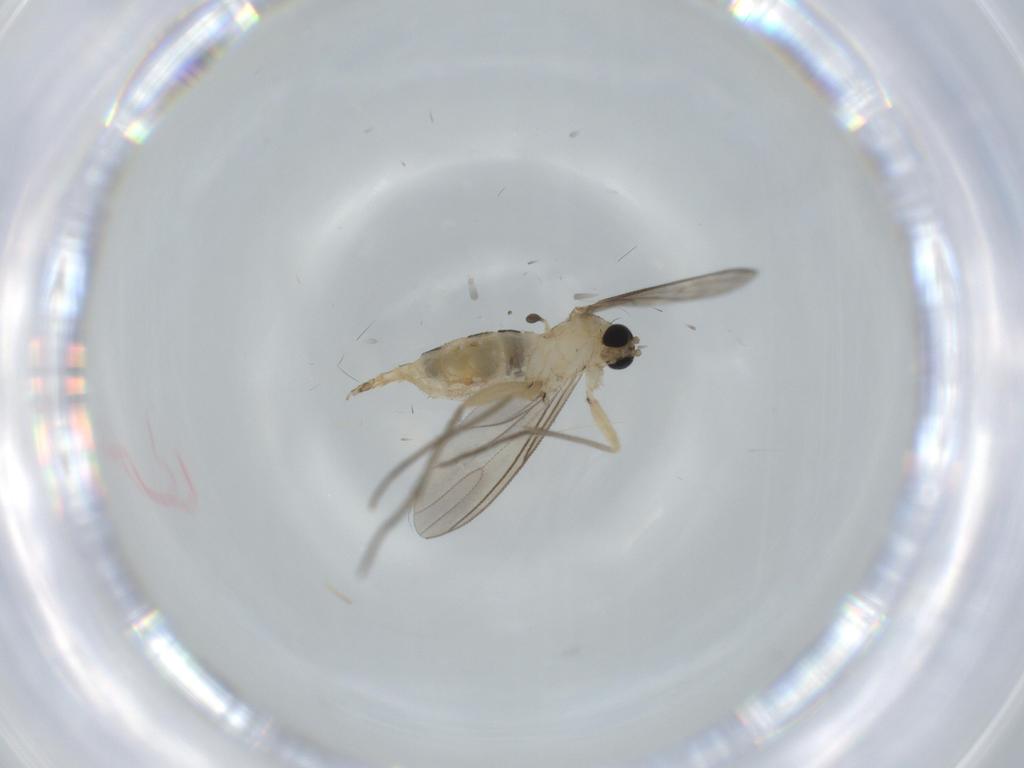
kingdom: Animalia
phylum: Arthropoda
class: Insecta
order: Diptera
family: Sciaridae
